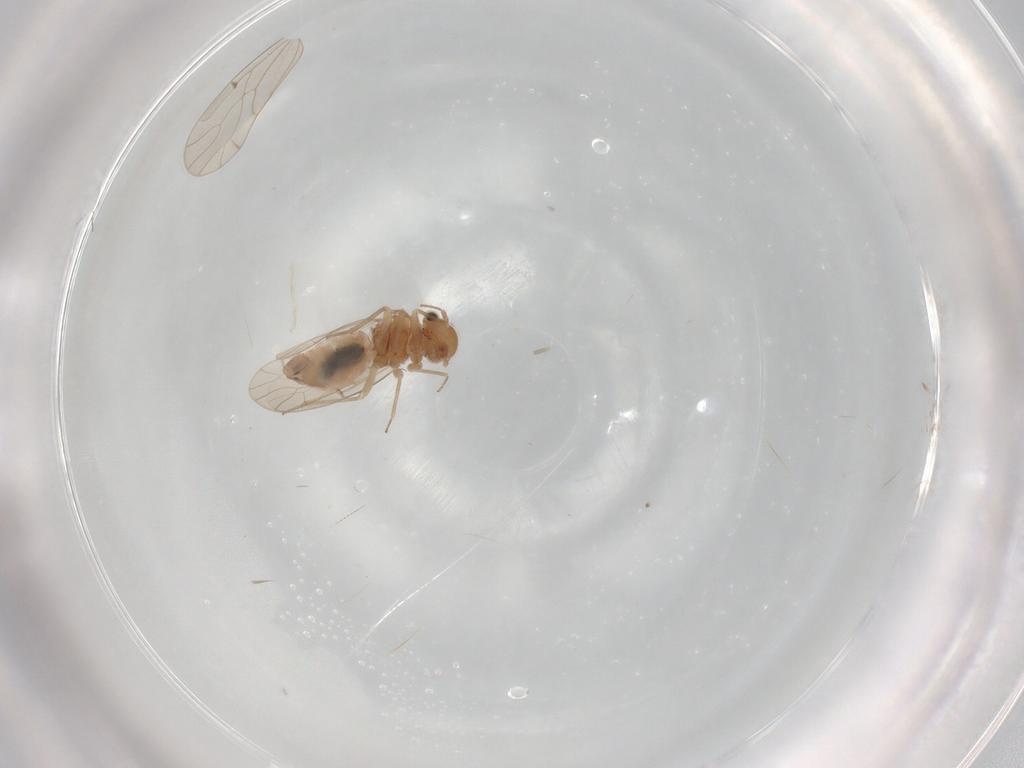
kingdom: Animalia
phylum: Arthropoda
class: Insecta
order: Psocodea
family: Ectopsocidae
